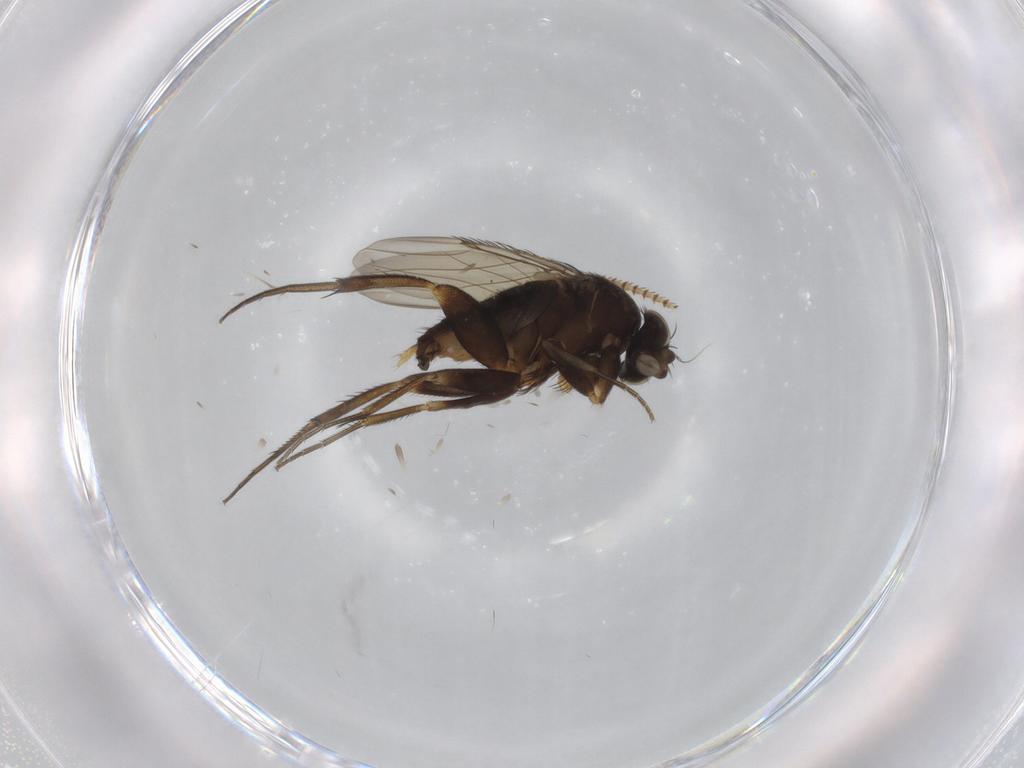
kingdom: Animalia
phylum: Arthropoda
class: Insecta
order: Diptera
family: Phoridae
